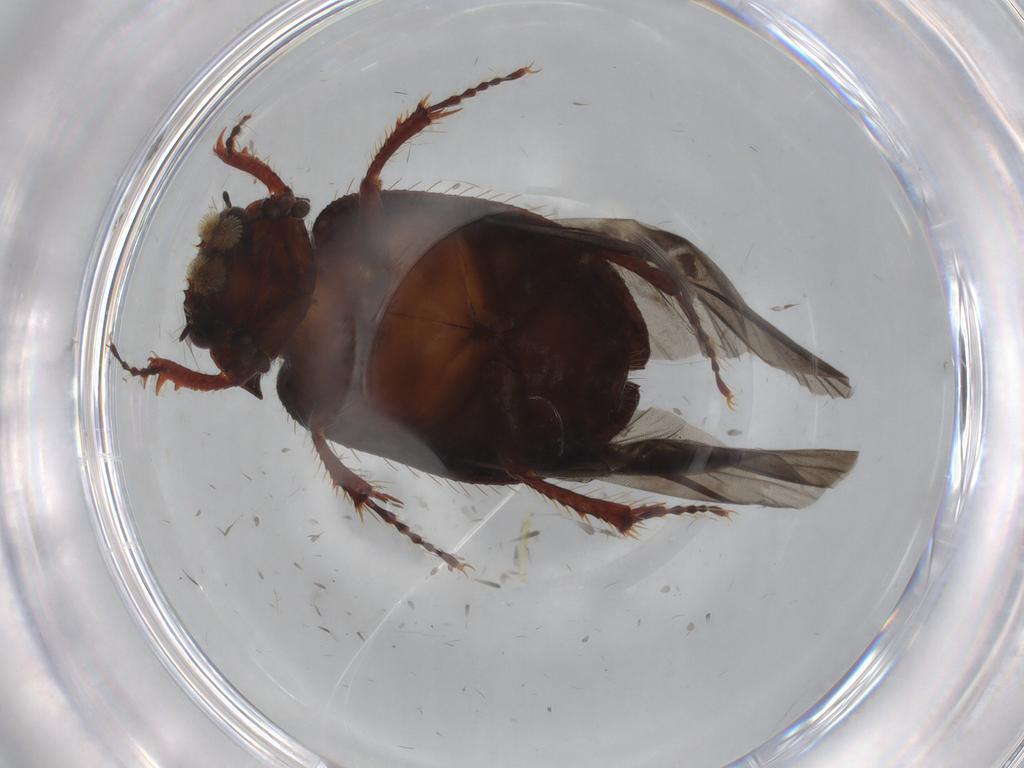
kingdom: Animalia
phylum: Arthropoda
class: Insecta
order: Coleoptera
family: Hybosoridae
